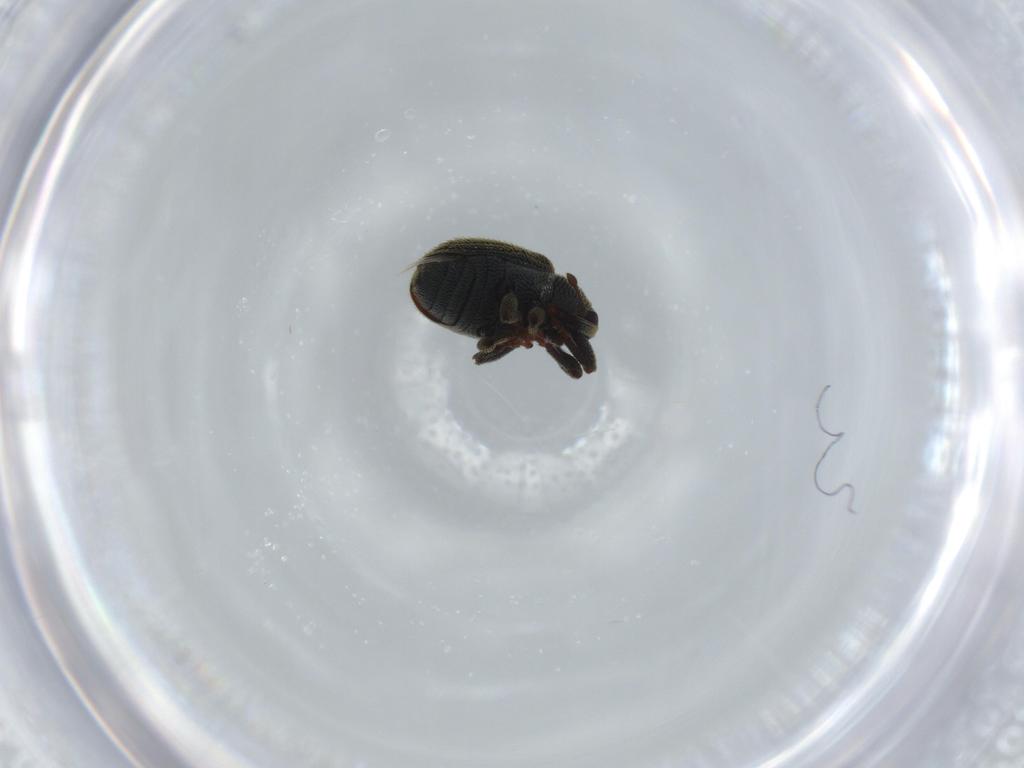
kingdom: Animalia
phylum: Arthropoda
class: Insecta
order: Coleoptera
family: Curculionidae
